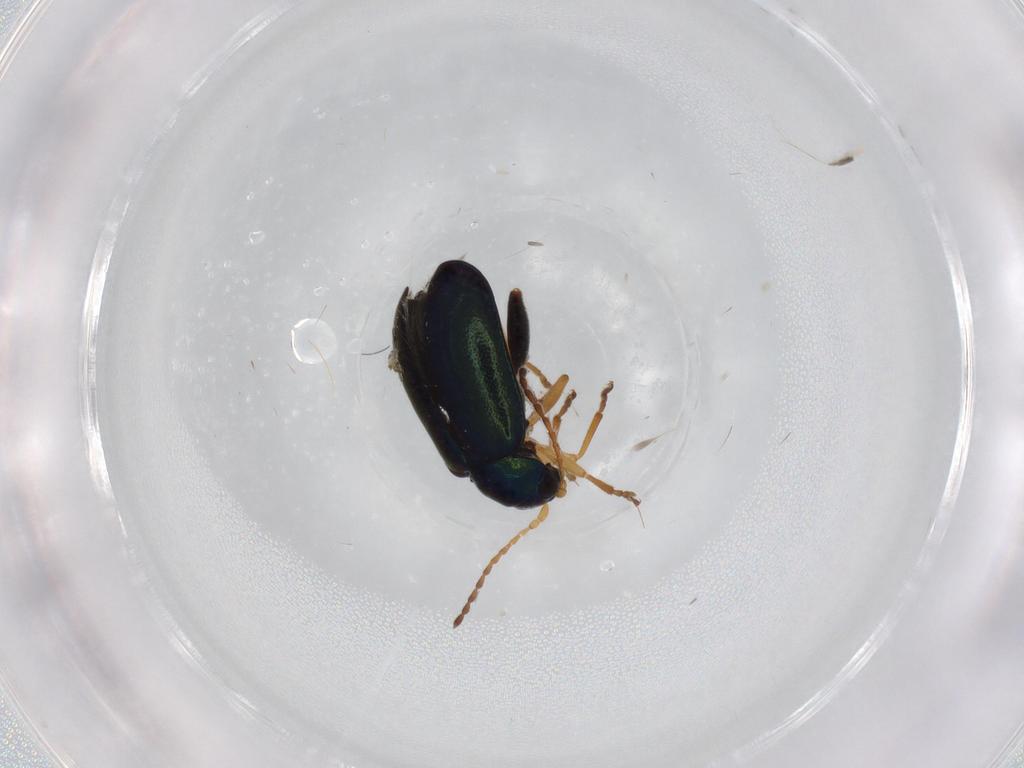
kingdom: Animalia
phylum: Arthropoda
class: Insecta
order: Coleoptera
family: Chrysomelidae
